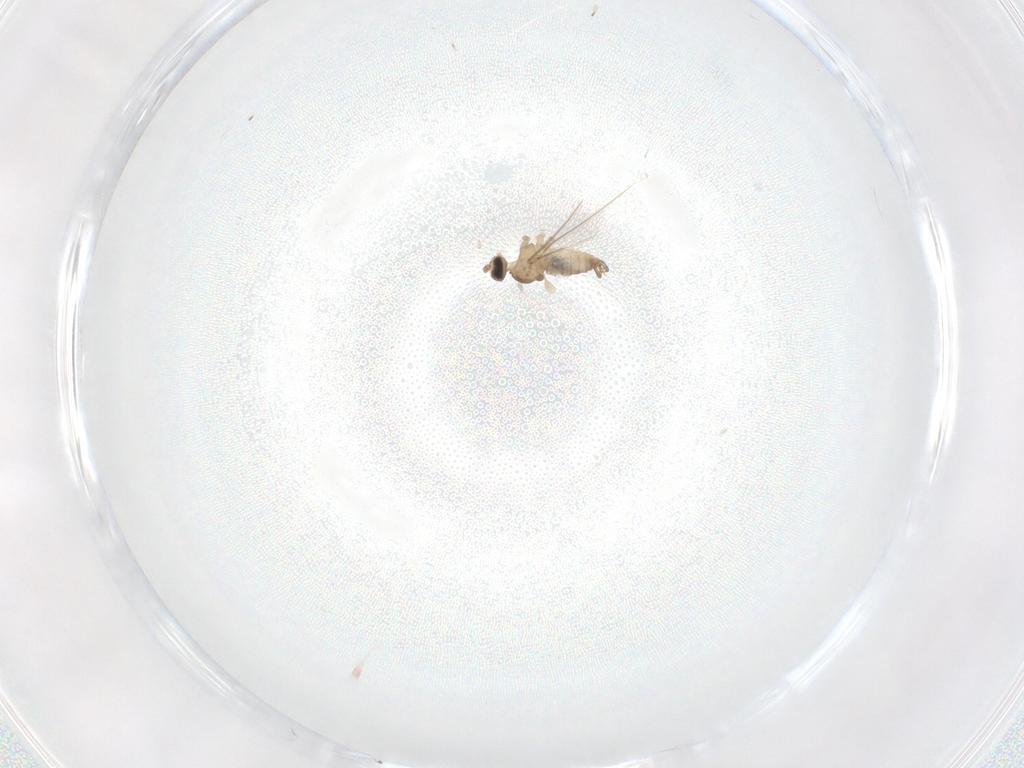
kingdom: Animalia
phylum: Arthropoda
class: Insecta
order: Diptera
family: Cecidomyiidae
